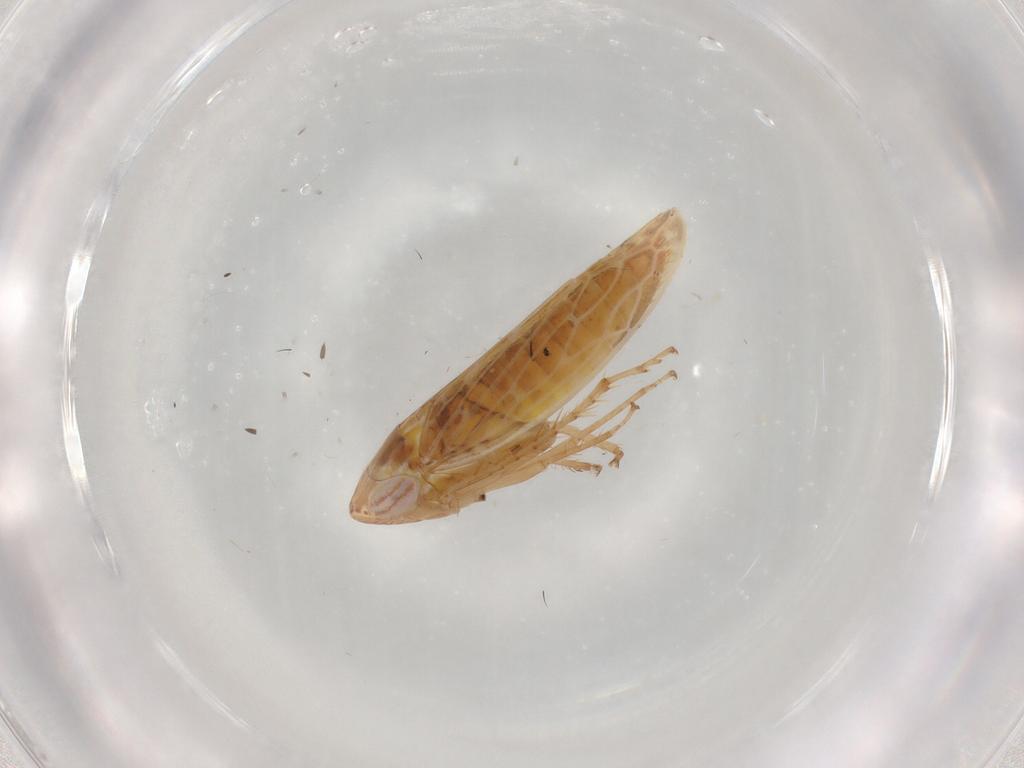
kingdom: Animalia
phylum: Arthropoda
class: Insecta
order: Hemiptera
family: Cicadellidae
